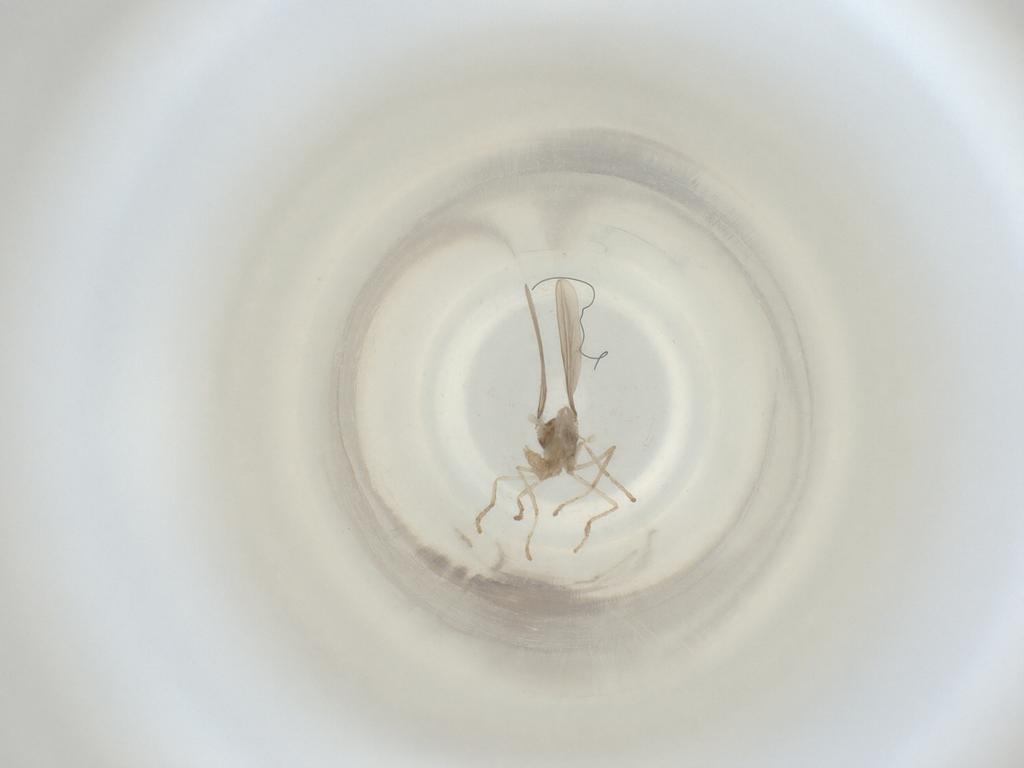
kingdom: Animalia
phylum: Arthropoda
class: Insecta
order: Diptera
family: Cecidomyiidae
